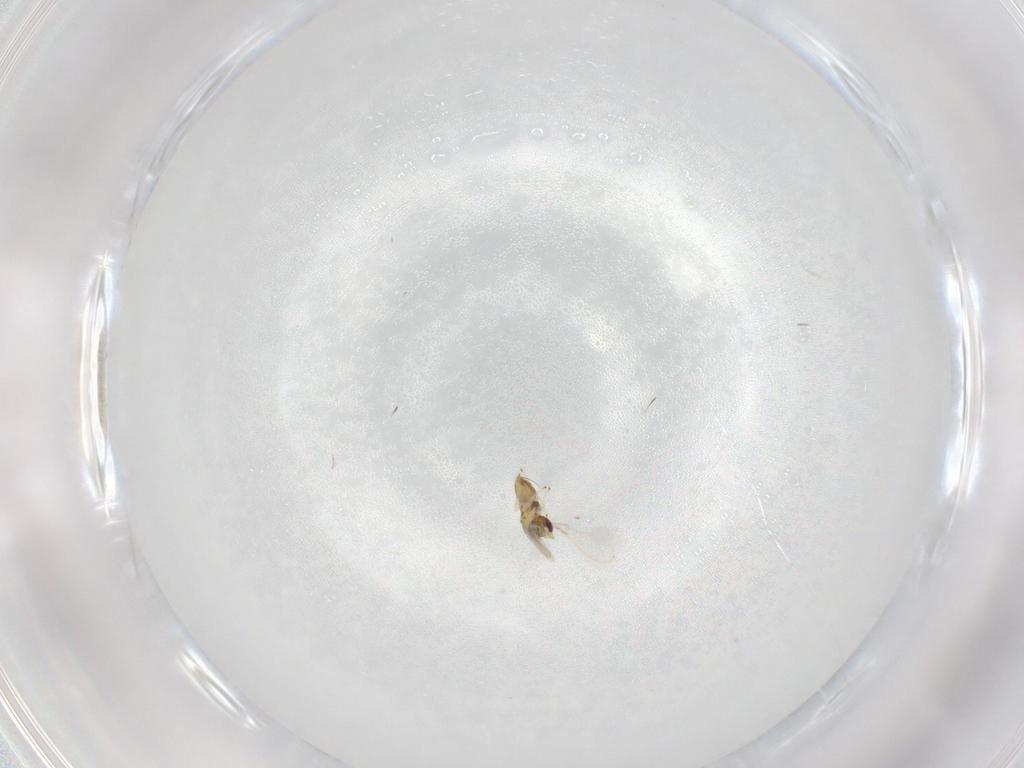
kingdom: Animalia
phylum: Arthropoda
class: Insecta
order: Hymenoptera
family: Mymaridae
